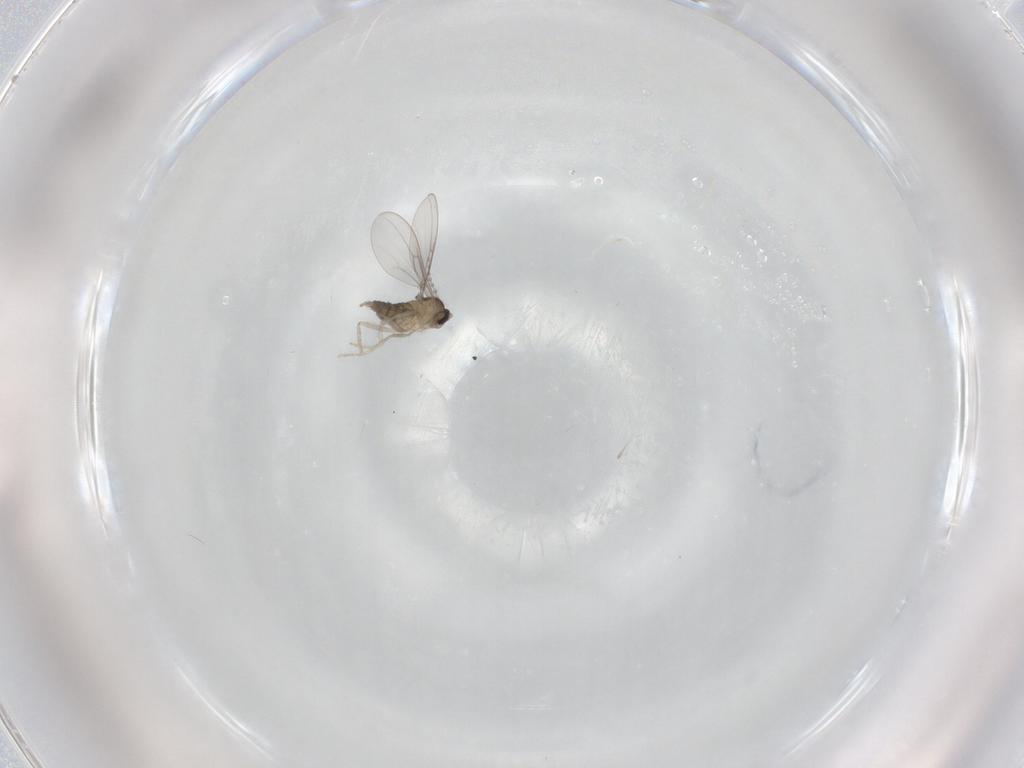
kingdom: Animalia
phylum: Arthropoda
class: Insecta
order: Diptera
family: Cecidomyiidae
